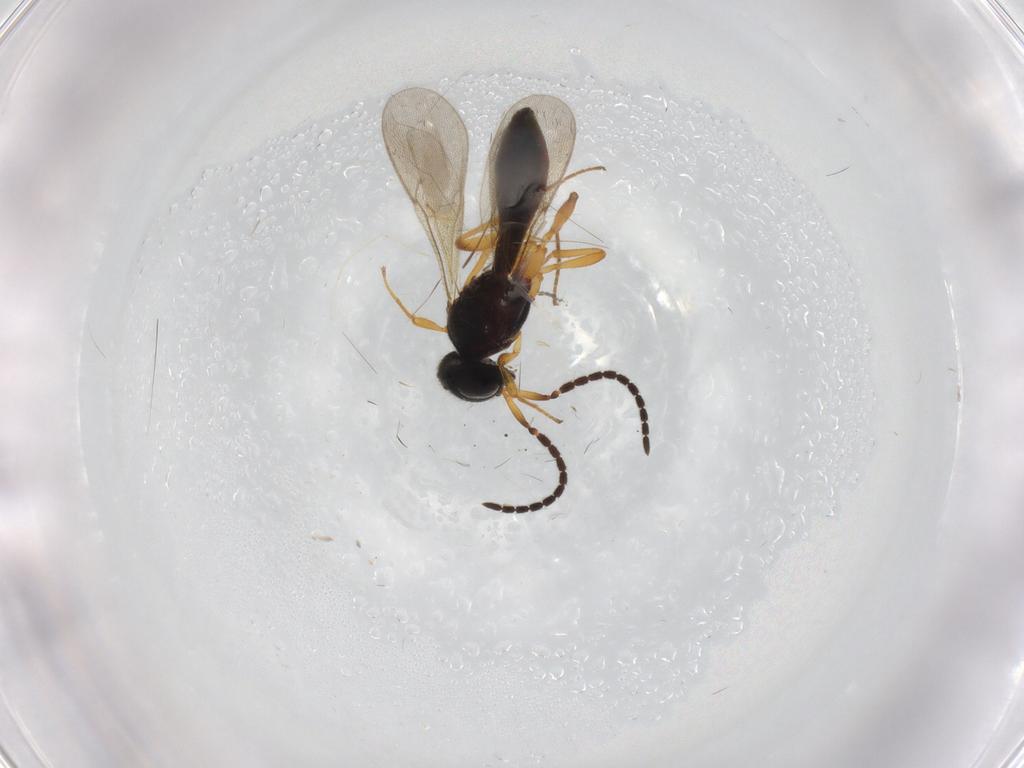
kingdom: Animalia
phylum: Arthropoda
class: Insecta
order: Hymenoptera
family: Scelionidae
